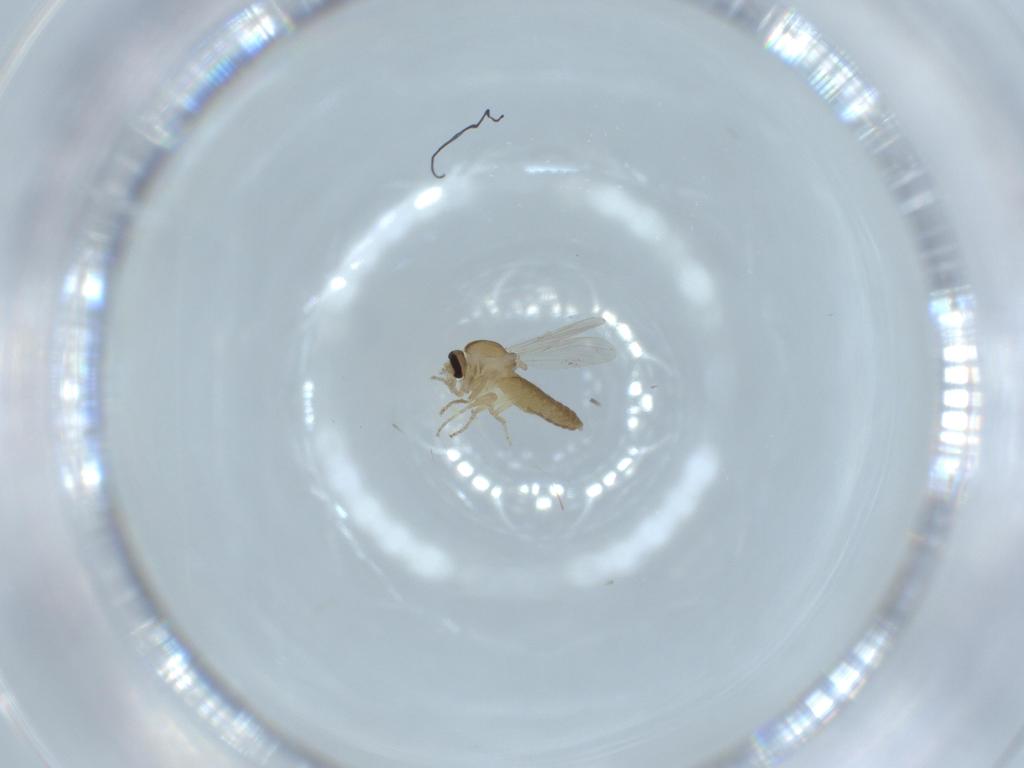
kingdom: Animalia
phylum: Arthropoda
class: Insecta
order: Diptera
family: Ceratopogonidae
